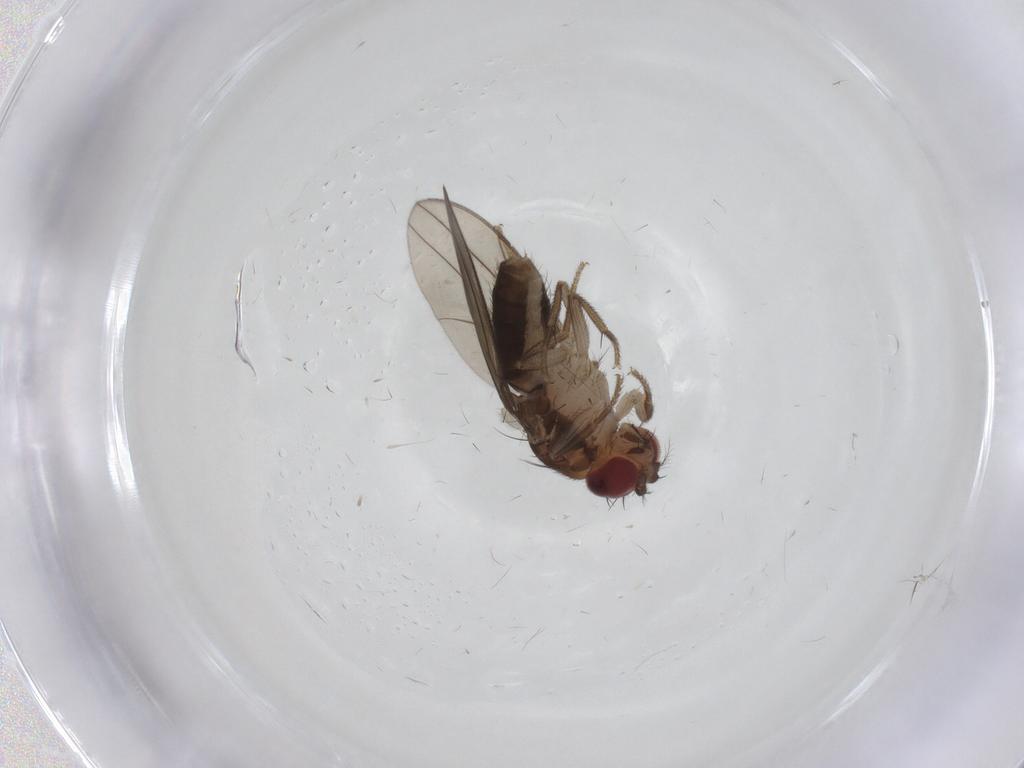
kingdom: Animalia
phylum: Arthropoda
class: Insecta
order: Diptera
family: Drosophilidae
